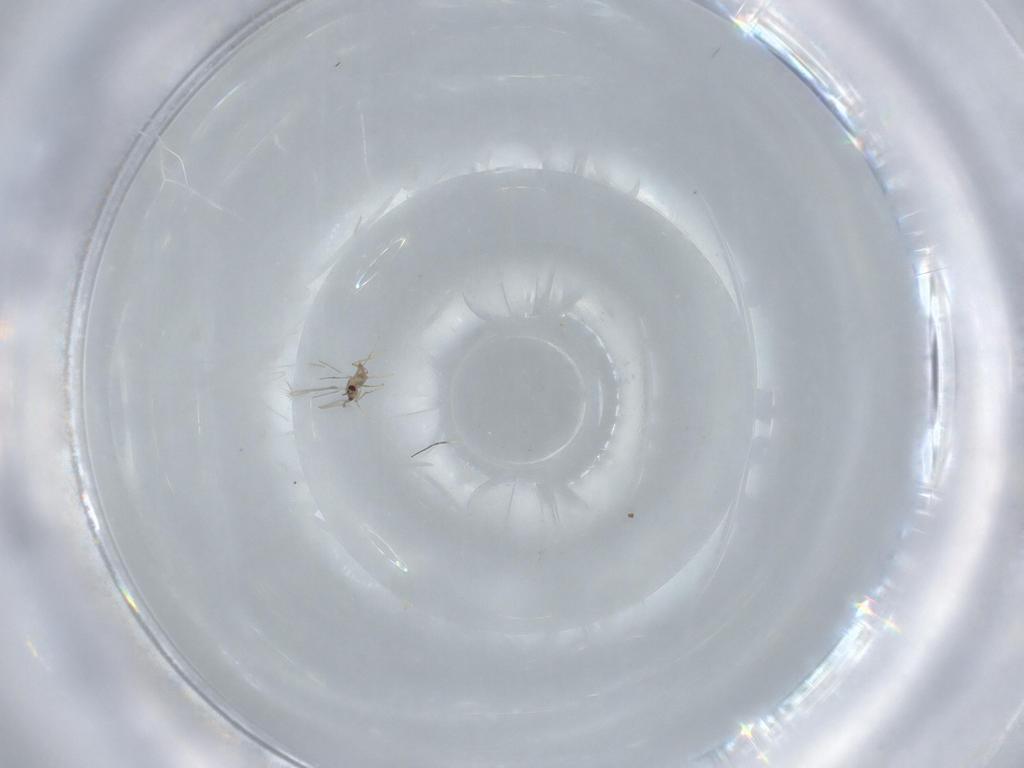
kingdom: Animalia
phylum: Arthropoda
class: Insecta
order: Hymenoptera
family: Mymaridae
